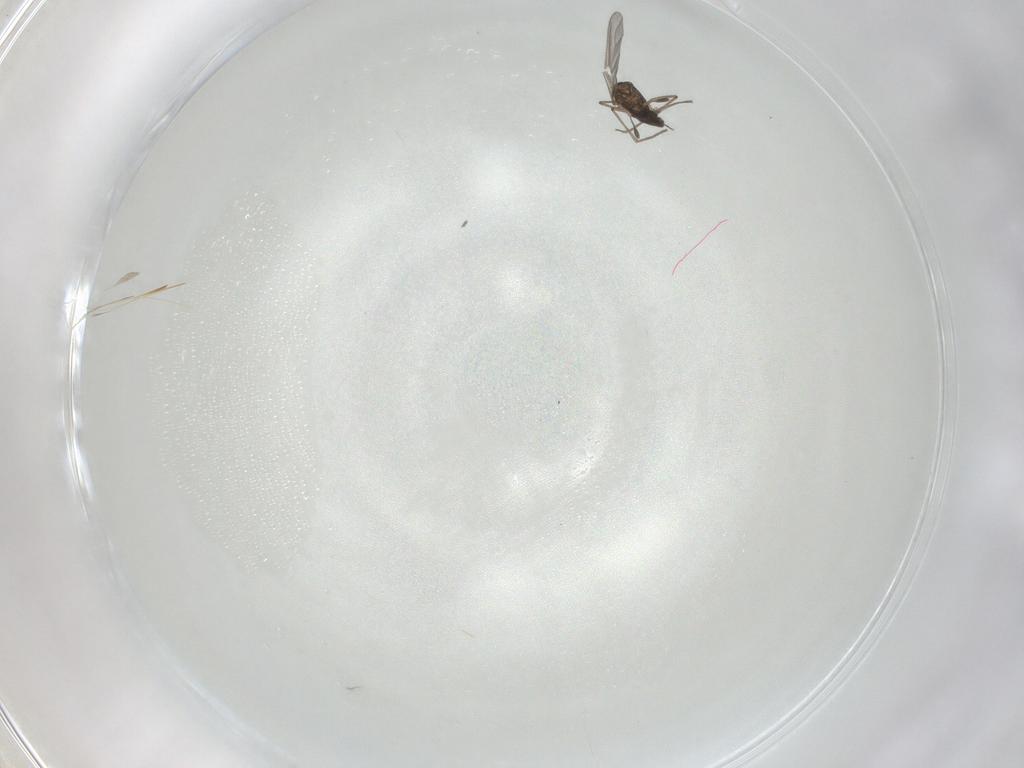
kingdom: Animalia
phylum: Arthropoda
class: Insecta
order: Diptera
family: Sciaridae
